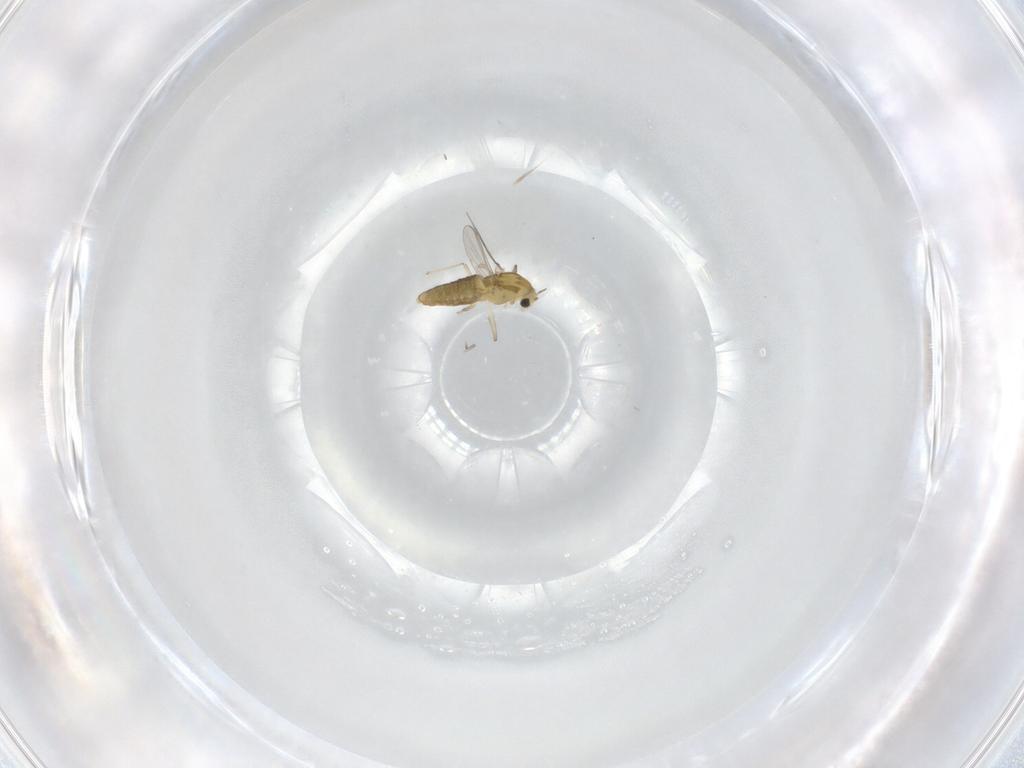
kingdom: Animalia
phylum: Arthropoda
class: Insecta
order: Diptera
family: Chironomidae
